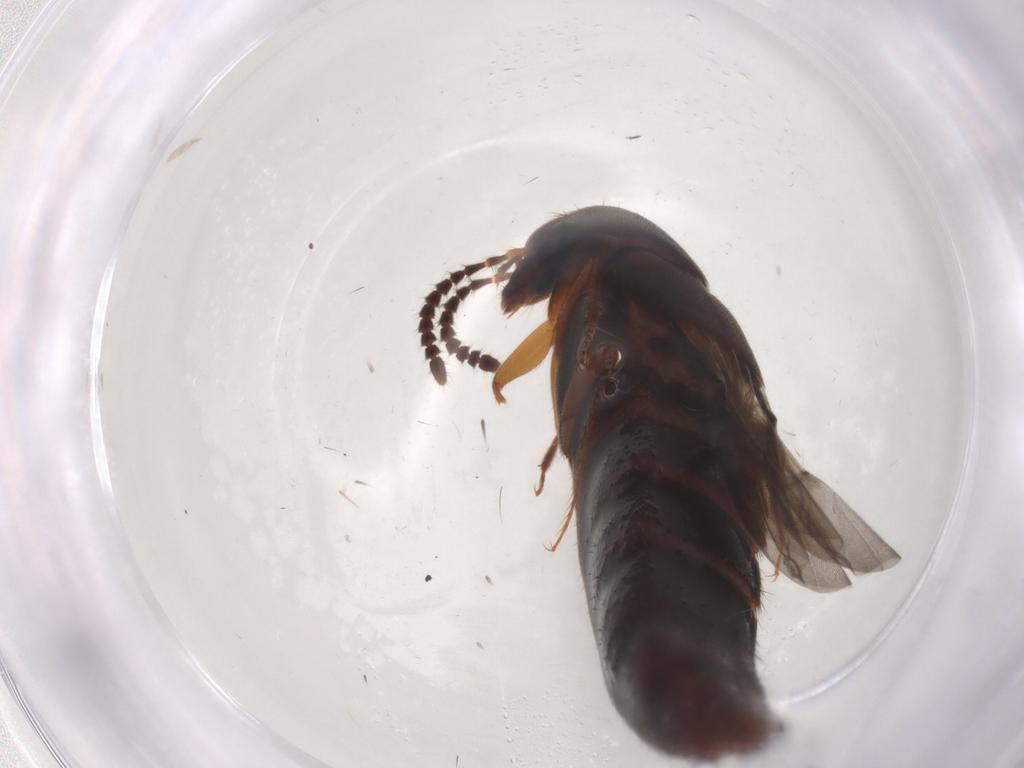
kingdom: Animalia
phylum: Arthropoda
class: Insecta
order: Coleoptera
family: Staphylinidae
